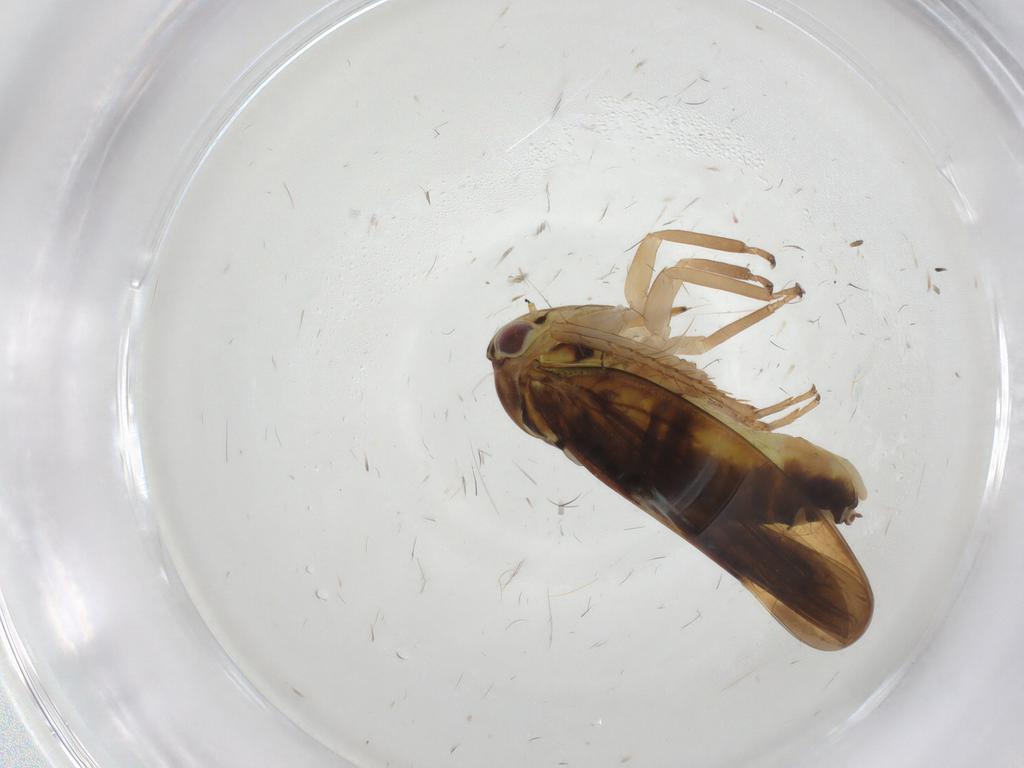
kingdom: Animalia
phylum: Arthropoda
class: Insecta
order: Hemiptera
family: Cicadellidae
